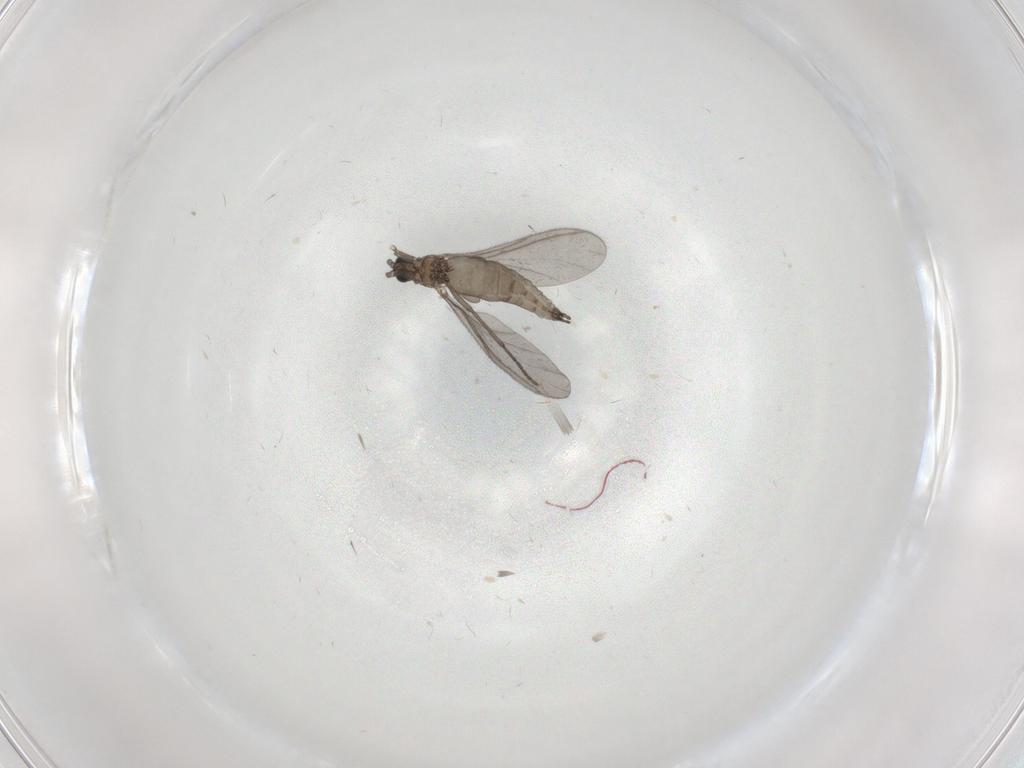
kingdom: Animalia
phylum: Arthropoda
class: Insecta
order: Diptera
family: Sciaridae
